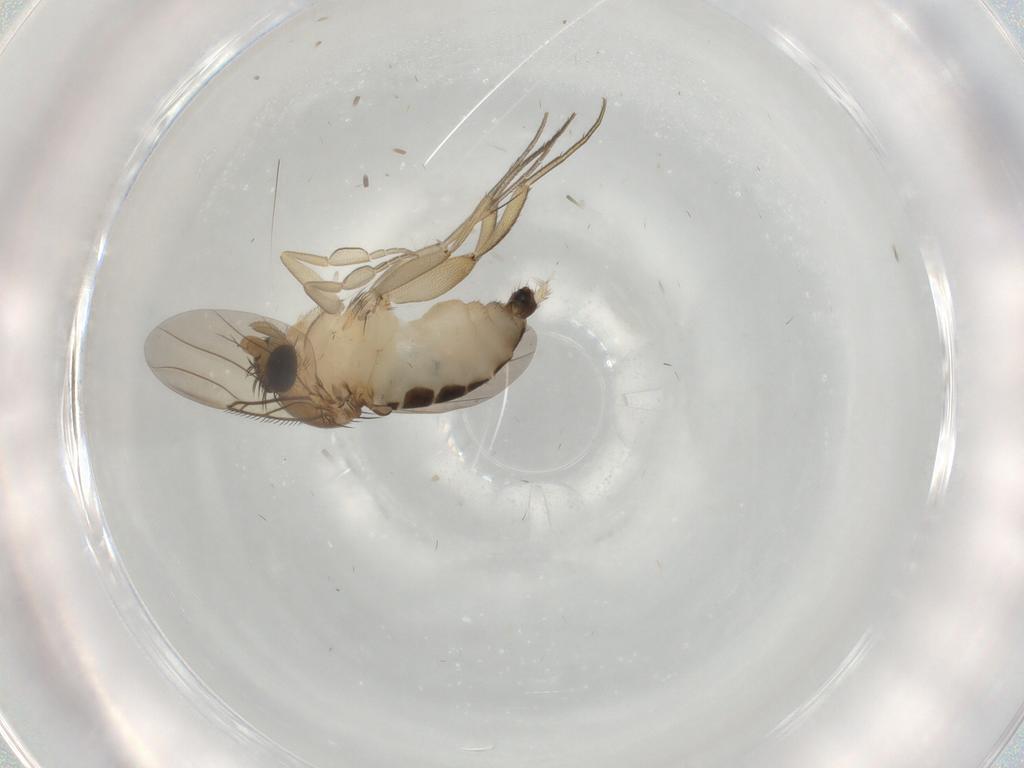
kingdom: Animalia
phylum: Arthropoda
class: Insecta
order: Diptera
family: Phoridae
